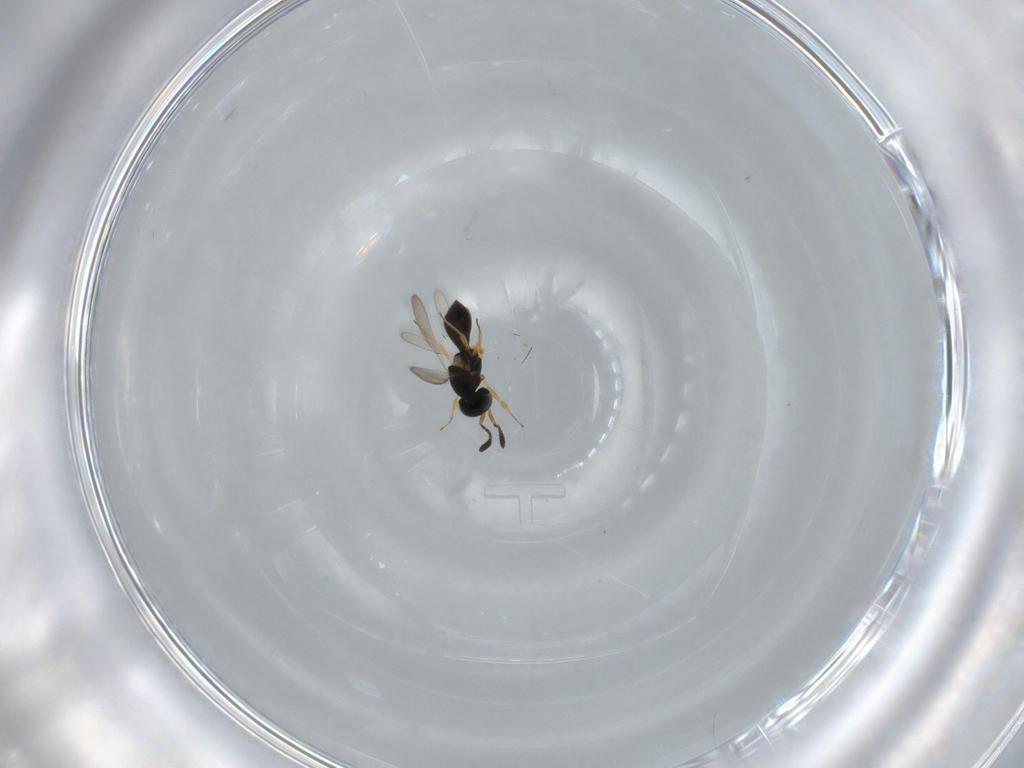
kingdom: Animalia
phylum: Arthropoda
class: Insecta
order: Hymenoptera
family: Scelionidae
